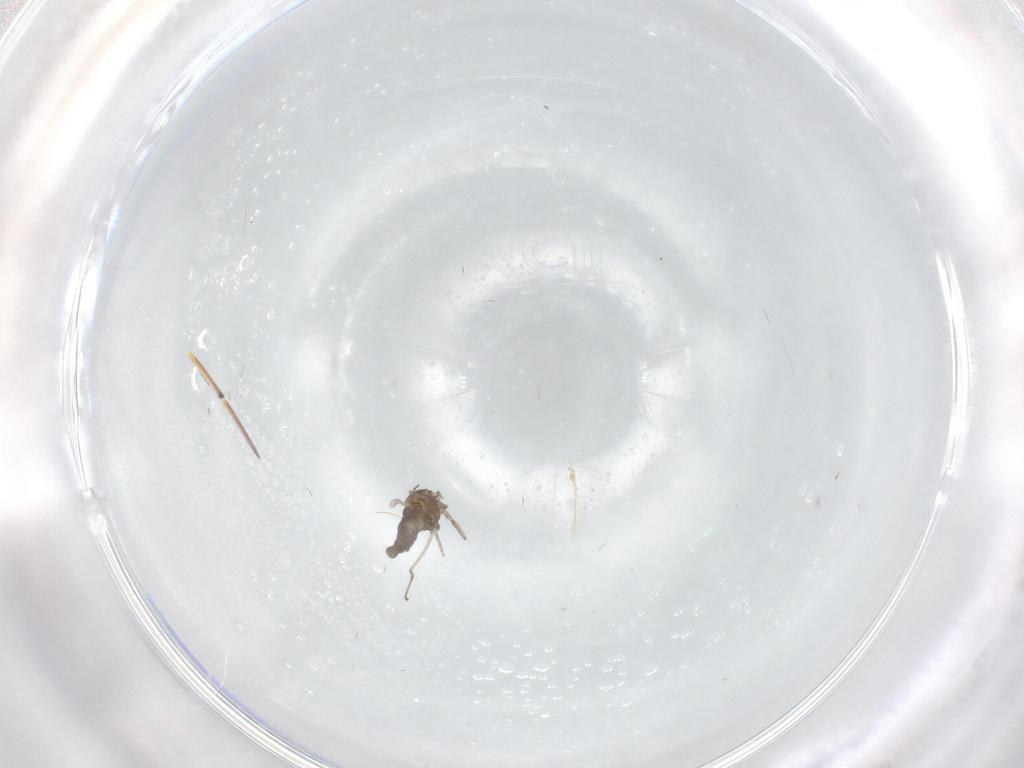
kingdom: Animalia
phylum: Arthropoda
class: Insecta
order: Diptera
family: Cecidomyiidae
